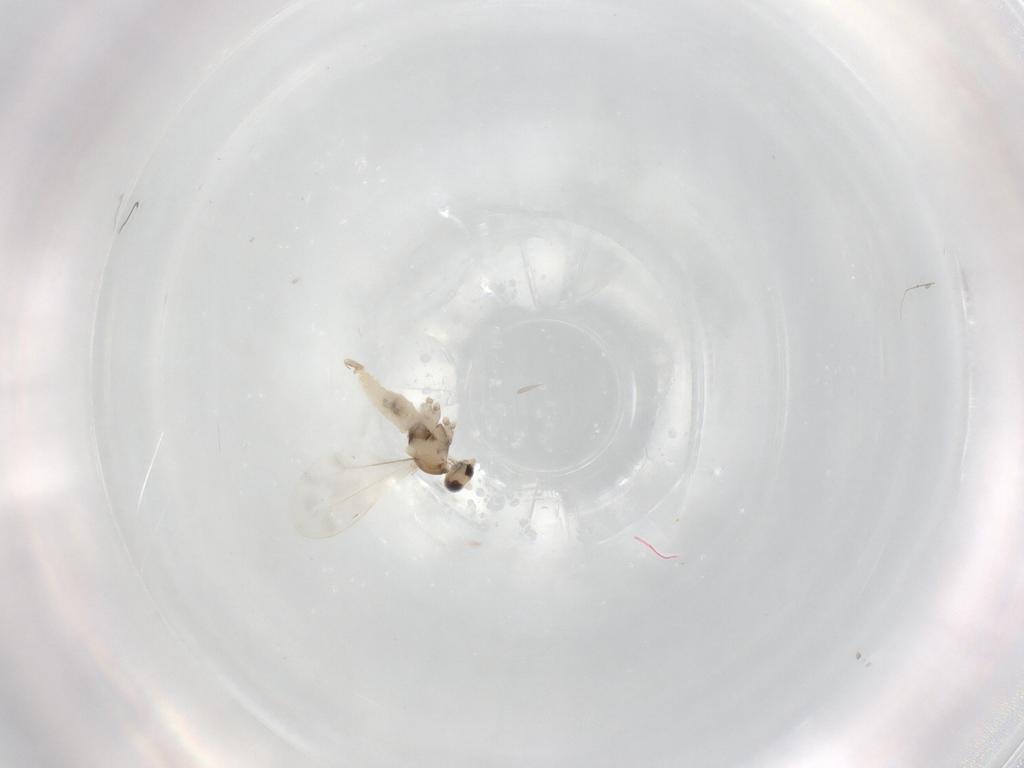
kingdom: Animalia
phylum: Arthropoda
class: Insecta
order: Diptera
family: Cecidomyiidae
